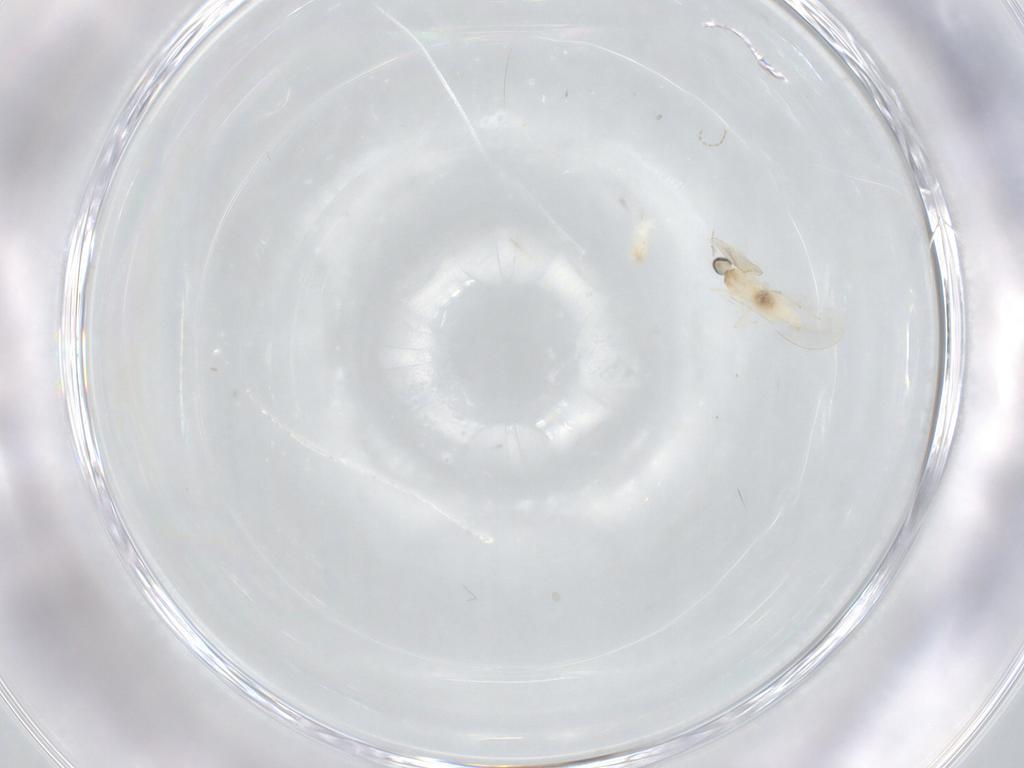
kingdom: Animalia
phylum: Arthropoda
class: Insecta
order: Diptera
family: Cecidomyiidae
